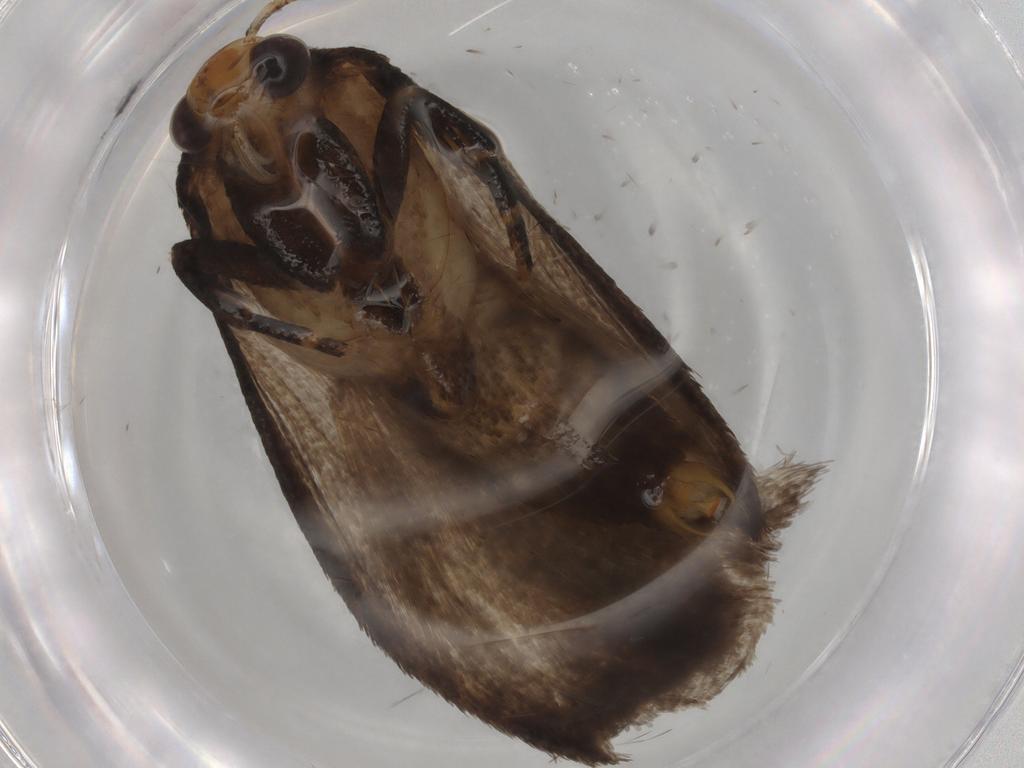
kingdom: Animalia
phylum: Arthropoda
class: Insecta
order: Lepidoptera
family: Oecophoridae
